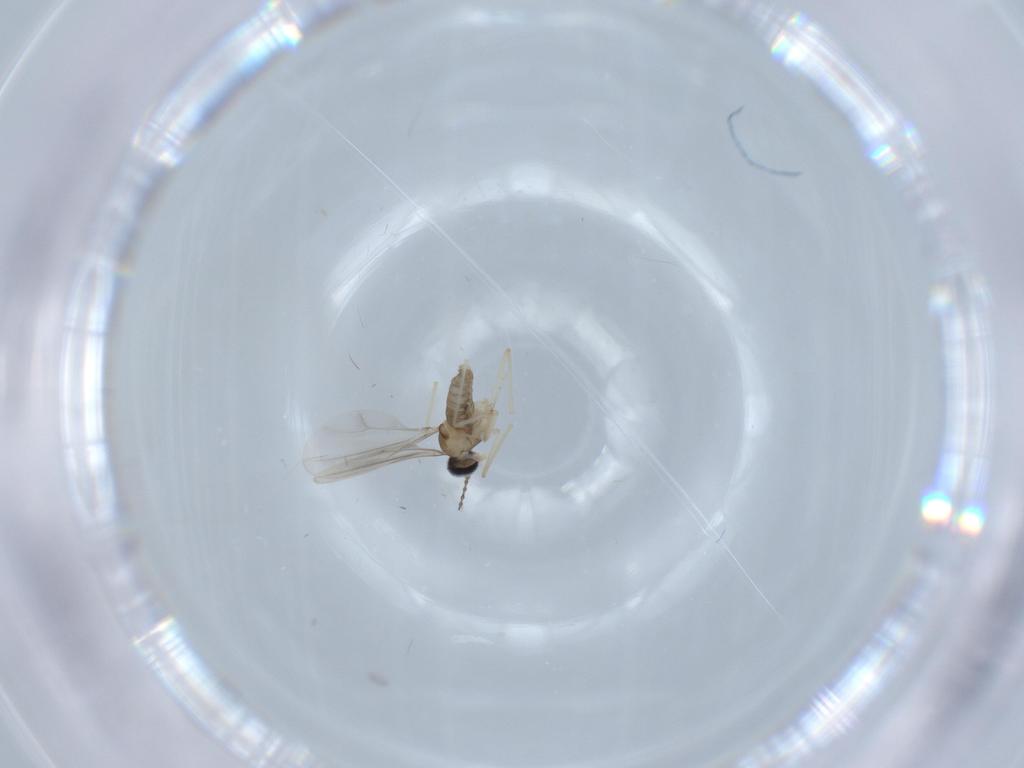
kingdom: Animalia
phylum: Arthropoda
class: Insecta
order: Diptera
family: Cecidomyiidae
